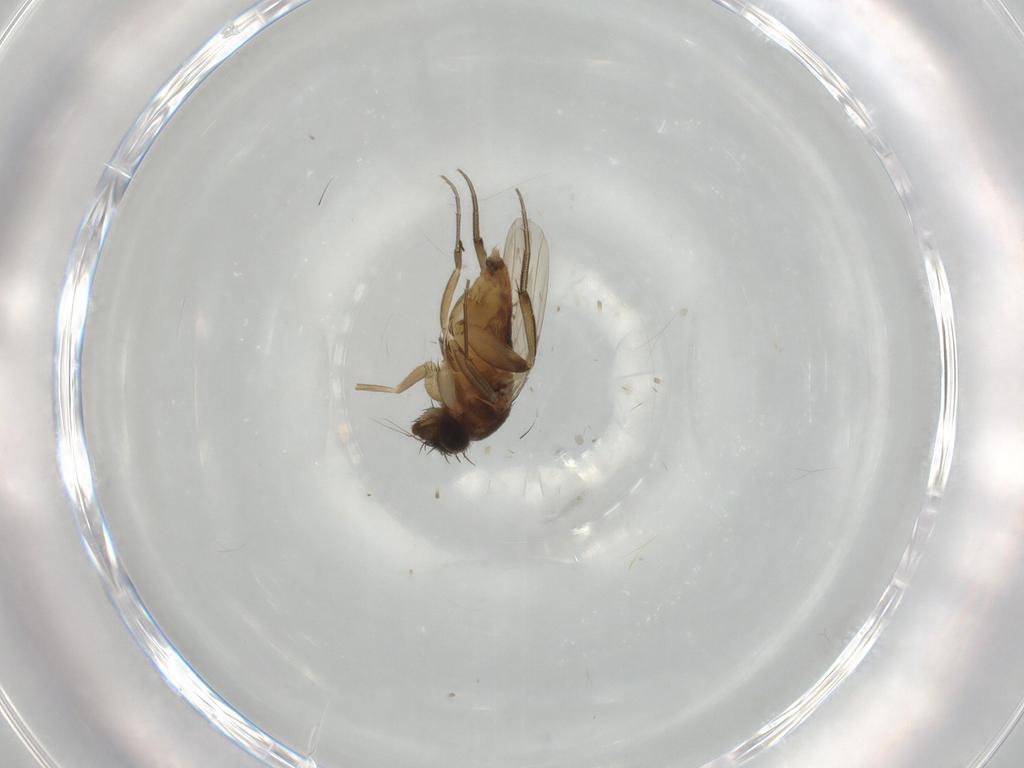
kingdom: Animalia
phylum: Arthropoda
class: Insecta
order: Diptera
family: Phoridae
